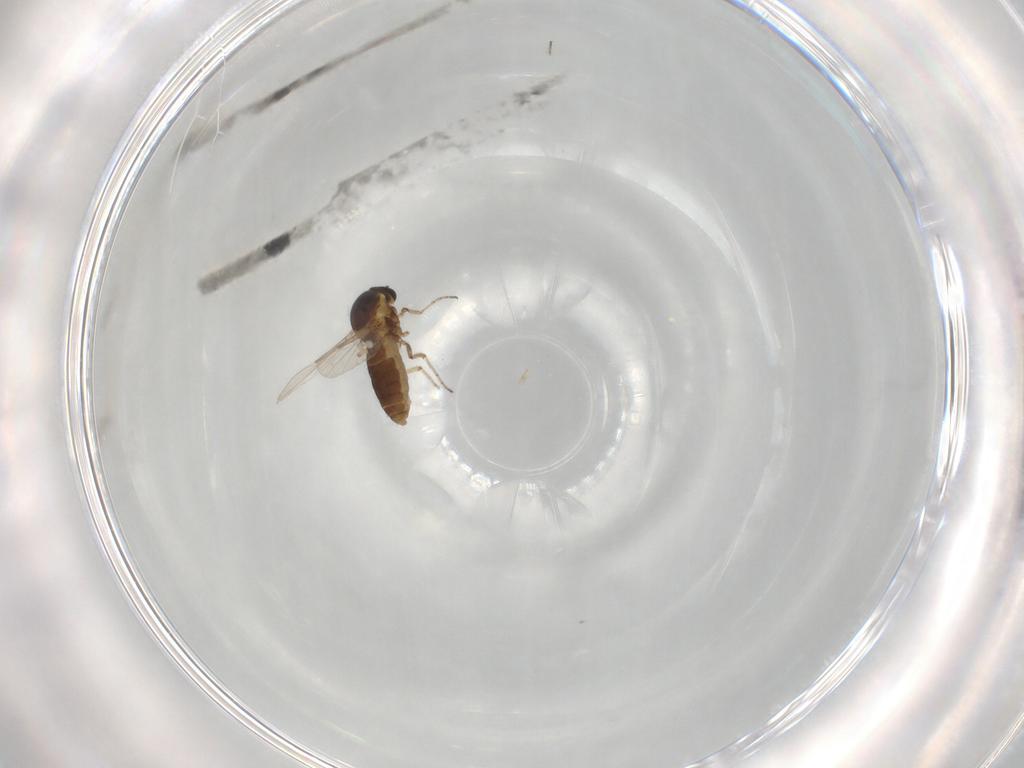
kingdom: Animalia
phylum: Arthropoda
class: Insecta
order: Diptera
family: Ceratopogonidae
